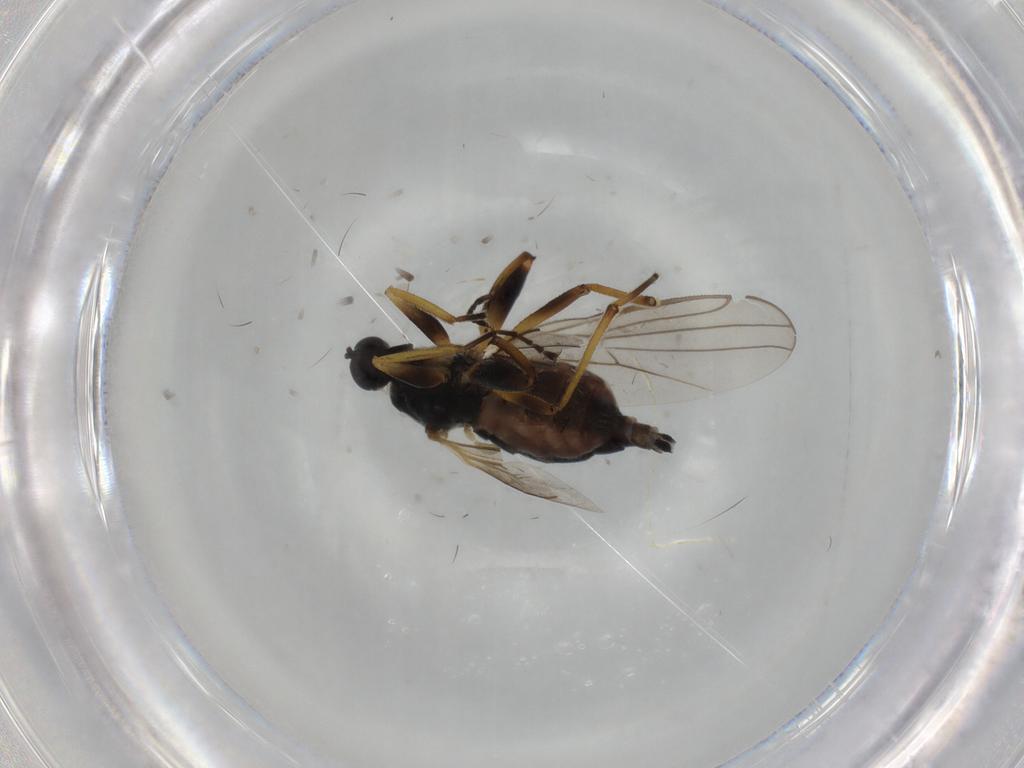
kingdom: Animalia
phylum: Arthropoda
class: Insecta
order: Diptera
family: Hybotidae
